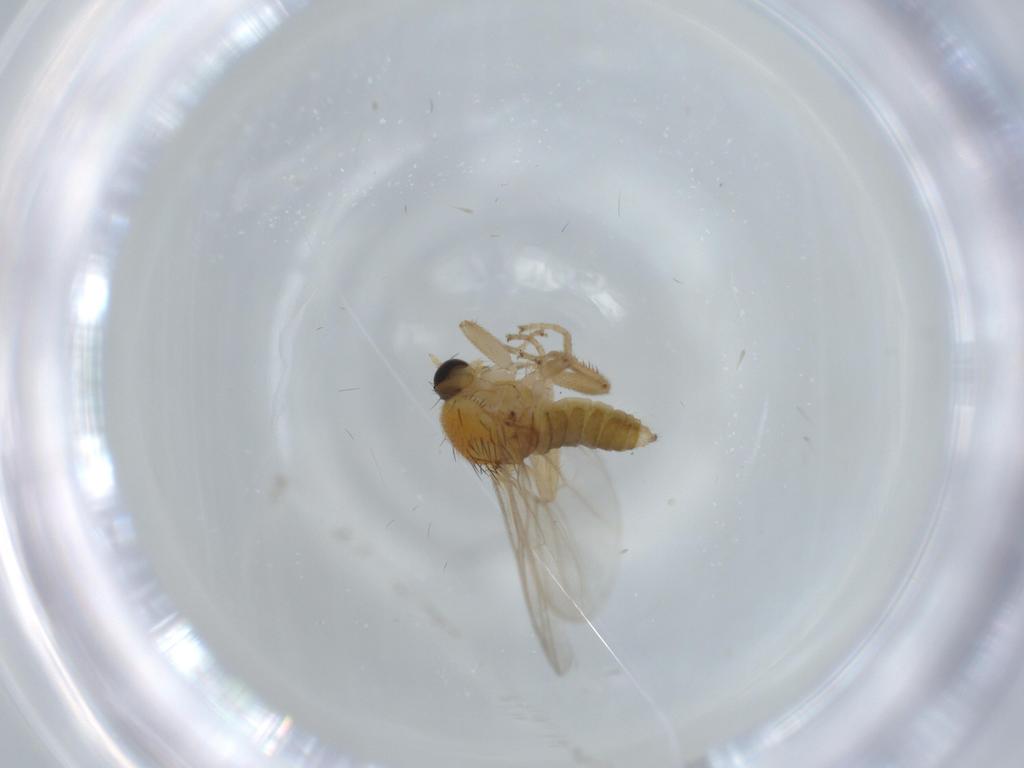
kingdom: Animalia
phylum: Arthropoda
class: Insecta
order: Diptera
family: Hybotidae
